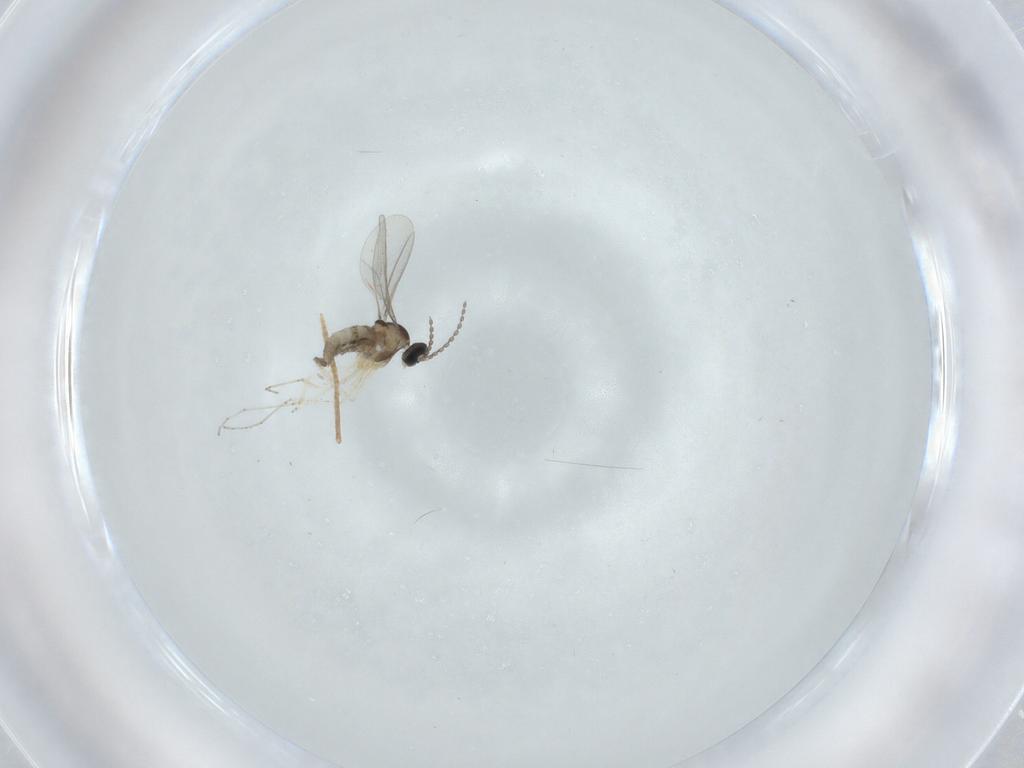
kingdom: Animalia
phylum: Arthropoda
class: Insecta
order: Diptera
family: Cecidomyiidae
